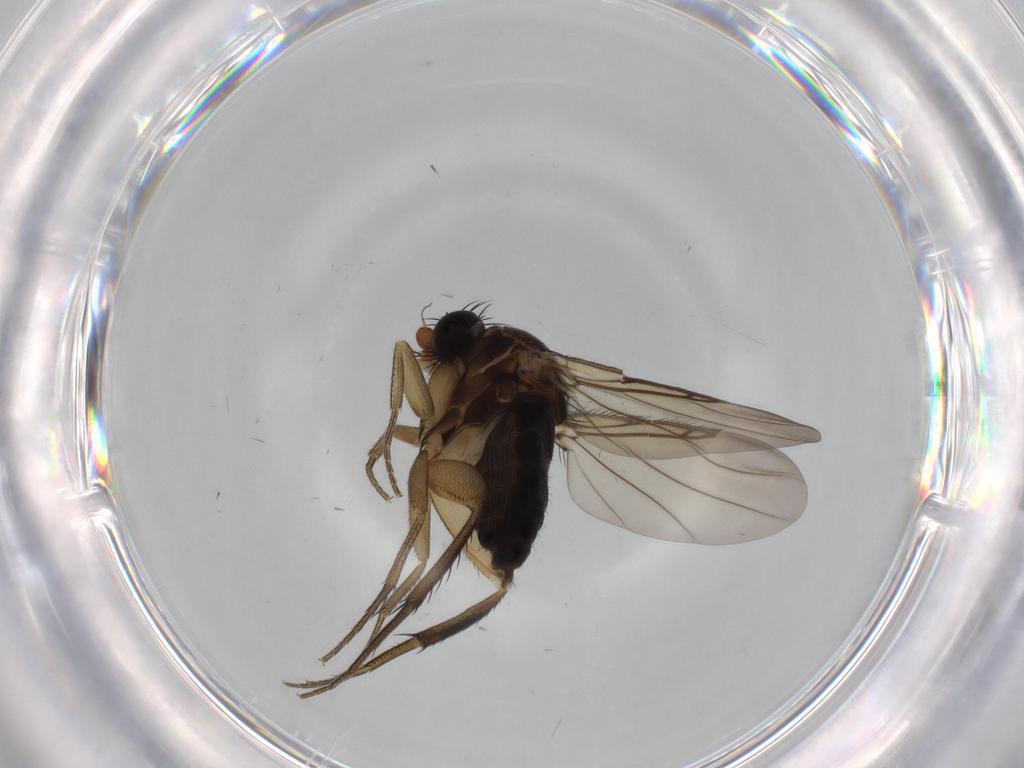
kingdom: Animalia
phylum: Arthropoda
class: Insecta
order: Diptera
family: Phoridae
